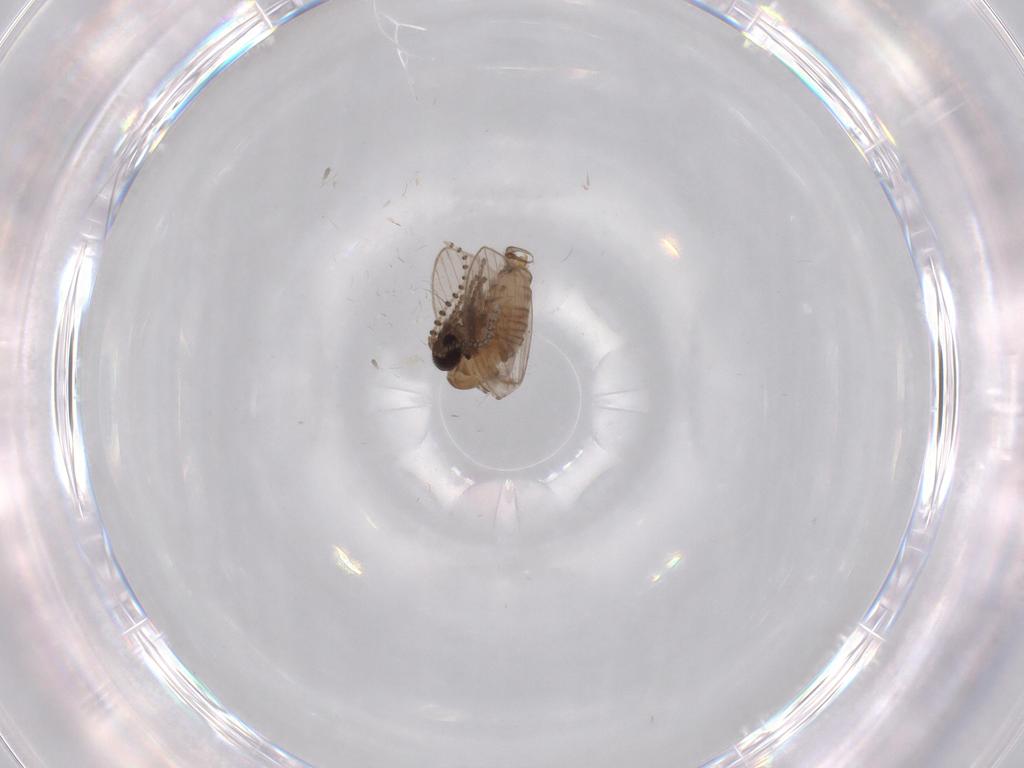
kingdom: Animalia
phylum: Arthropoda
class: Insecta
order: Diptera
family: Psychodidae
